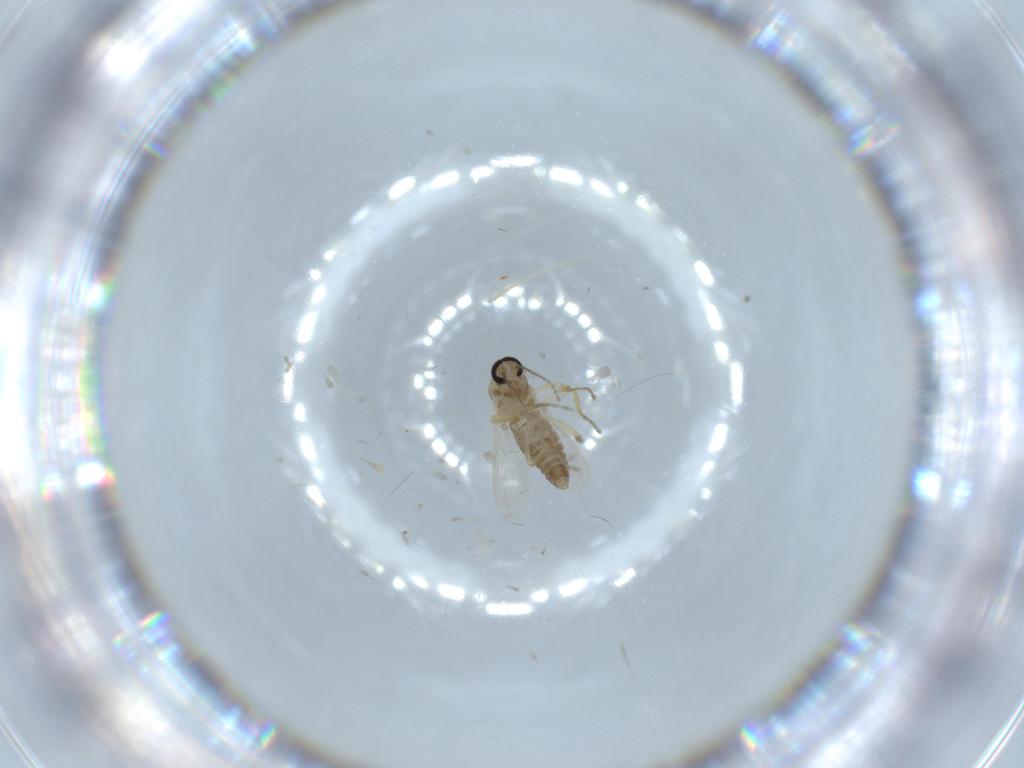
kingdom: Animalia
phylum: Arthropoda
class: Insecta
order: Diptera
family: Ceratopogonidae
